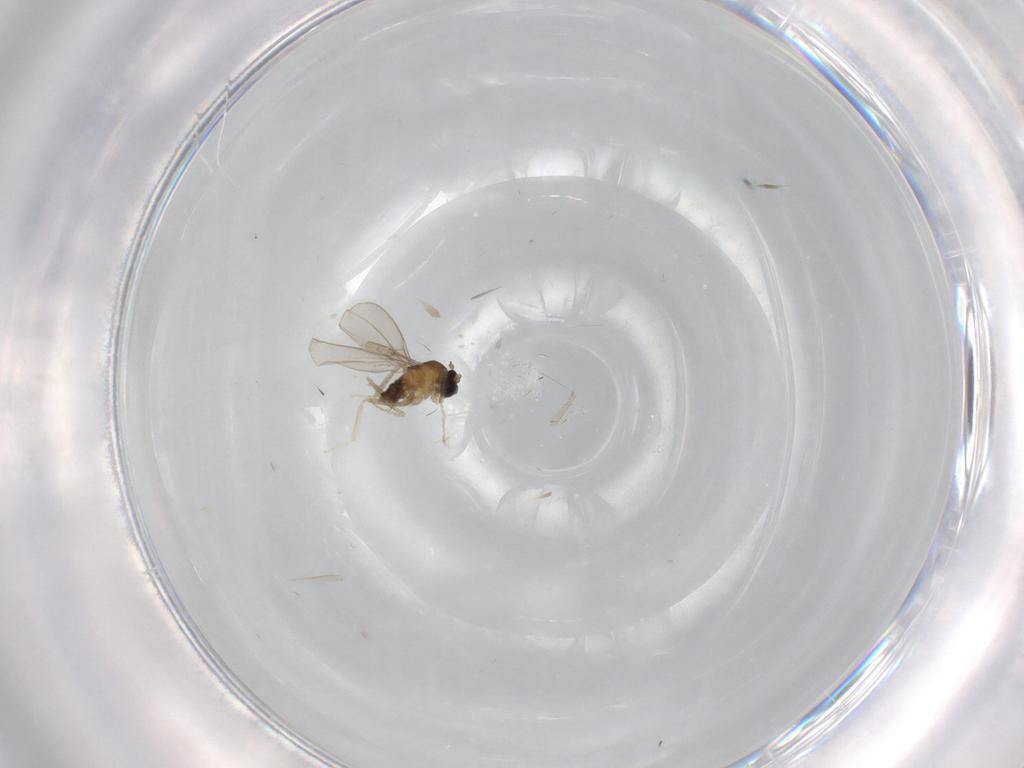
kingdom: Animalia
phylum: Arthropoda
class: Insecta
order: Diptera
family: Cecidomyiidae
